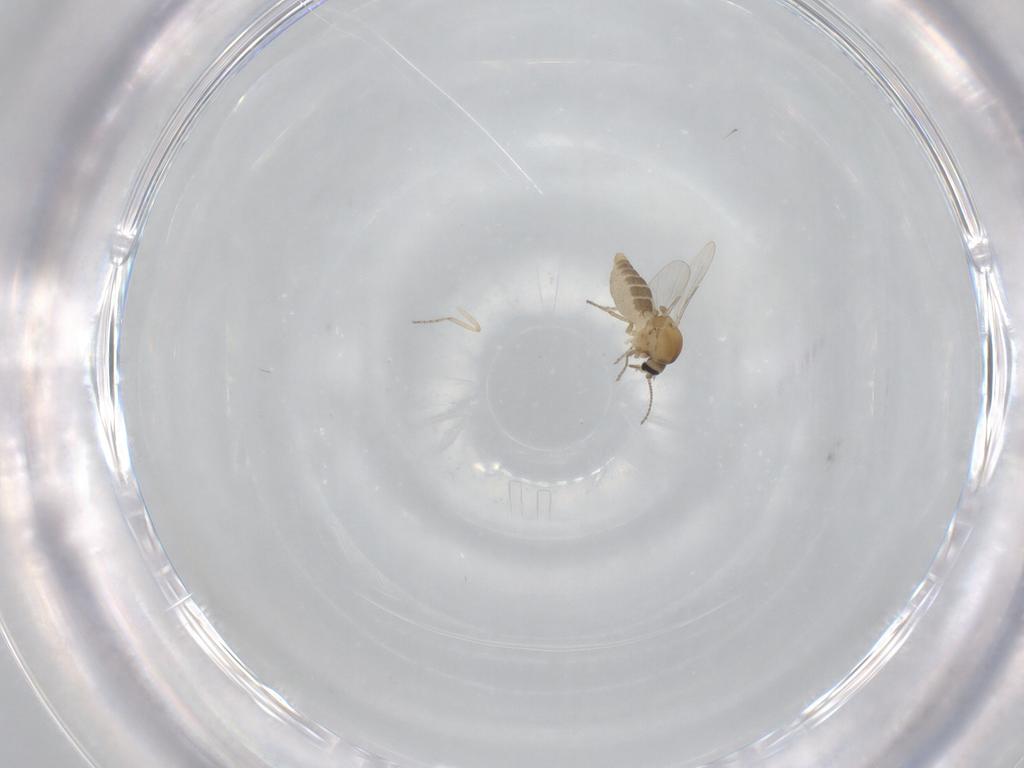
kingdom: Animalia
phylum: Arthropoda
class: Insecta
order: Diptera
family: Ceratopogonidae
